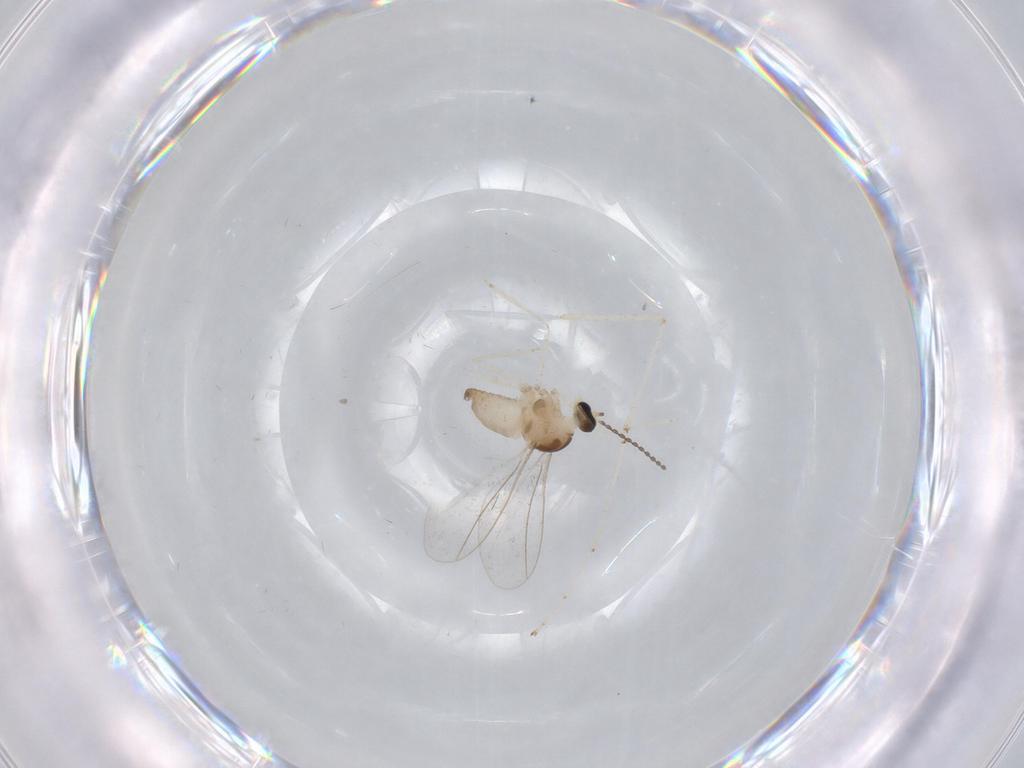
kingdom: Animalia
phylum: Arthropoda
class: Insecta
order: Diptera
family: Cecidomyiidae
